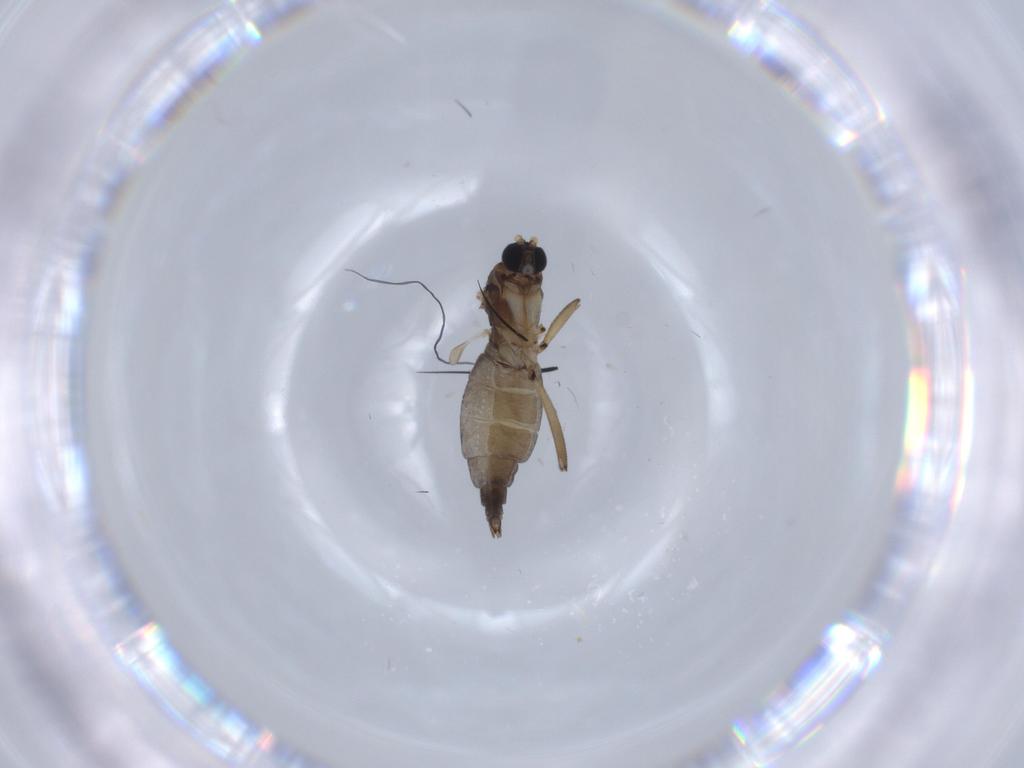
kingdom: Animalia
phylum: Arthropoda
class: Insecta
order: Diptera
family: Sciaridae
